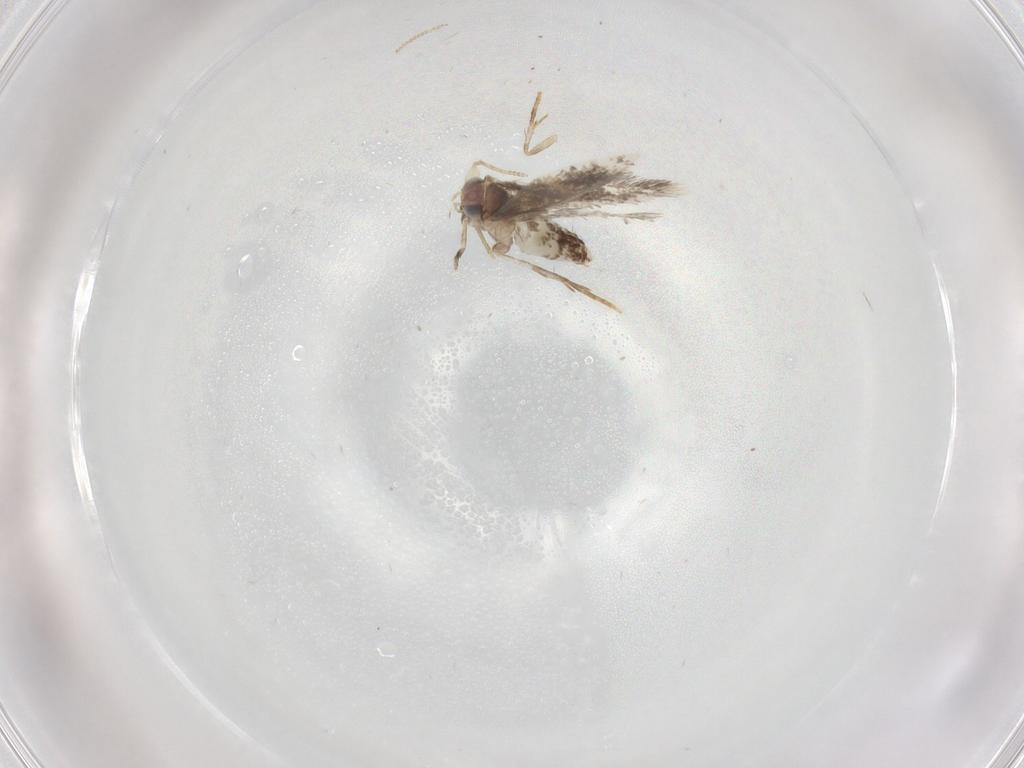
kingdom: Animalia
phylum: Arthropoda
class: Insecta
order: Lepidoptera
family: Nepticulidae
